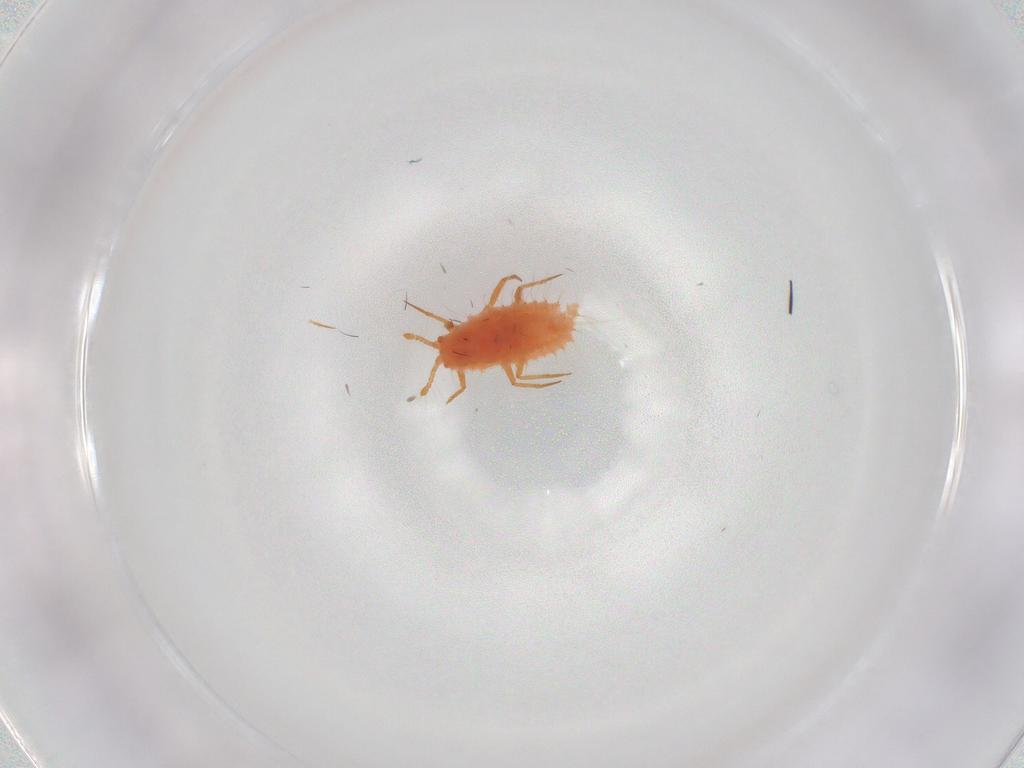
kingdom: Animalia
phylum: Arthropoda
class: Insecta
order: Hemiptera
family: Coccoidea_incertae_sedis
